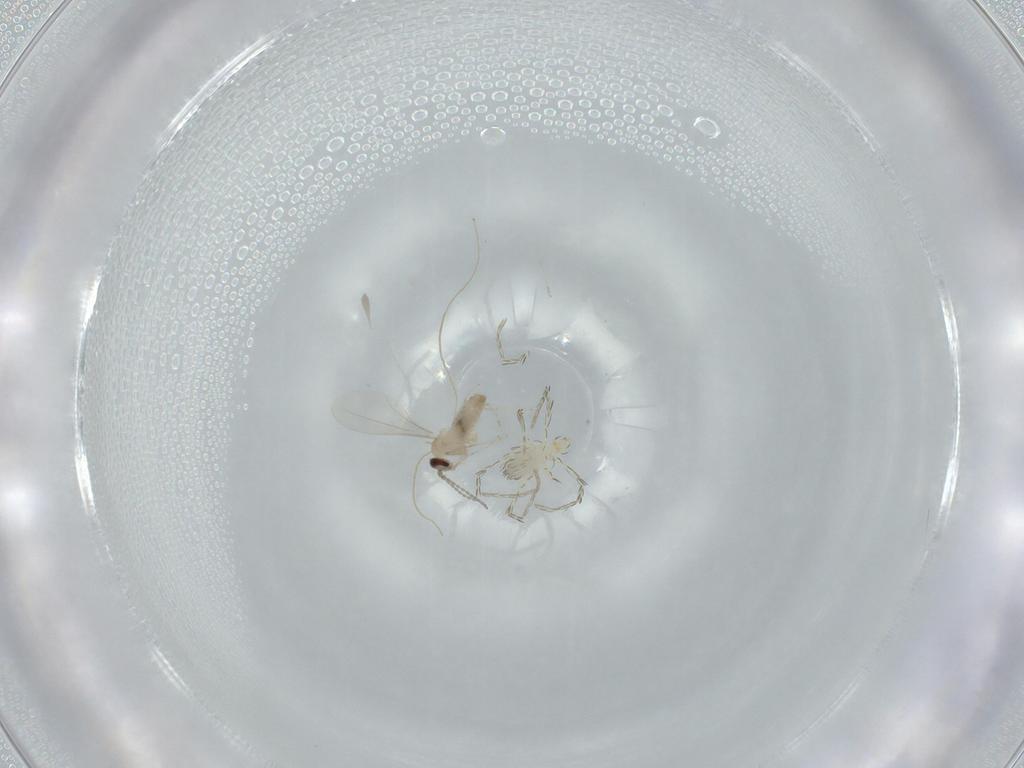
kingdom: Animalia
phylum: Arthropoda
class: Insecta
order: Diptera
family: Cecidomyiidae
